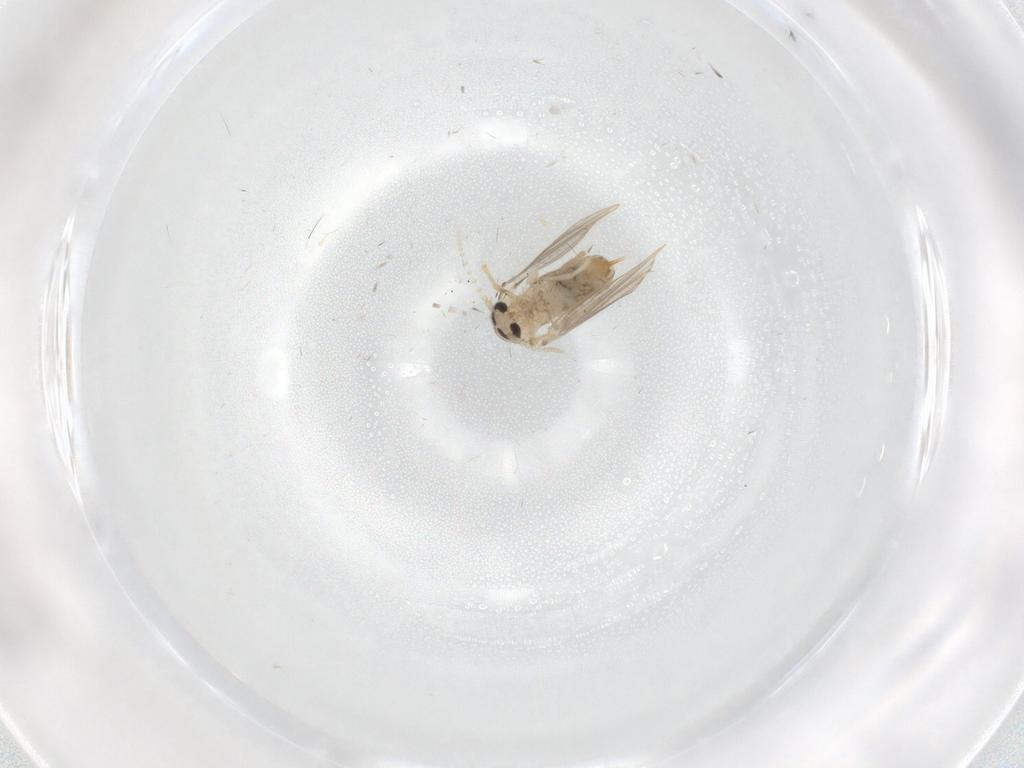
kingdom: Animalia
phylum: Arthropoda
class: Insecta
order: Diptera
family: Psychodidae
